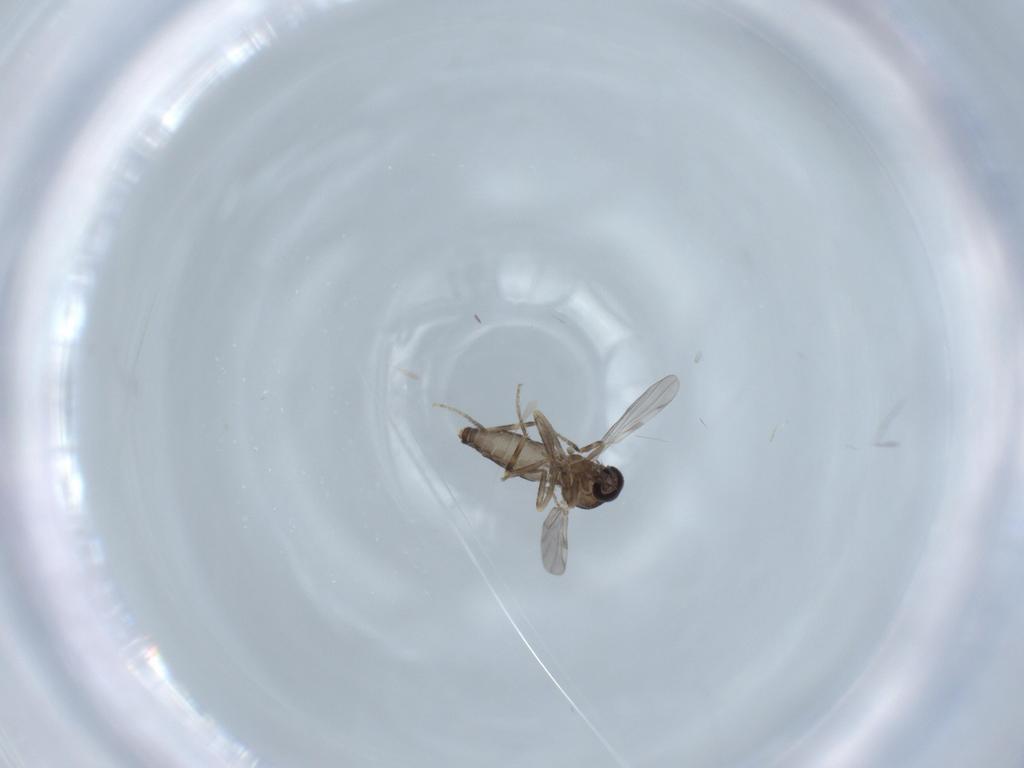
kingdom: Animalia
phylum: Arthropoda
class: Insecta
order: Diptera
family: Ceratopogonidae
